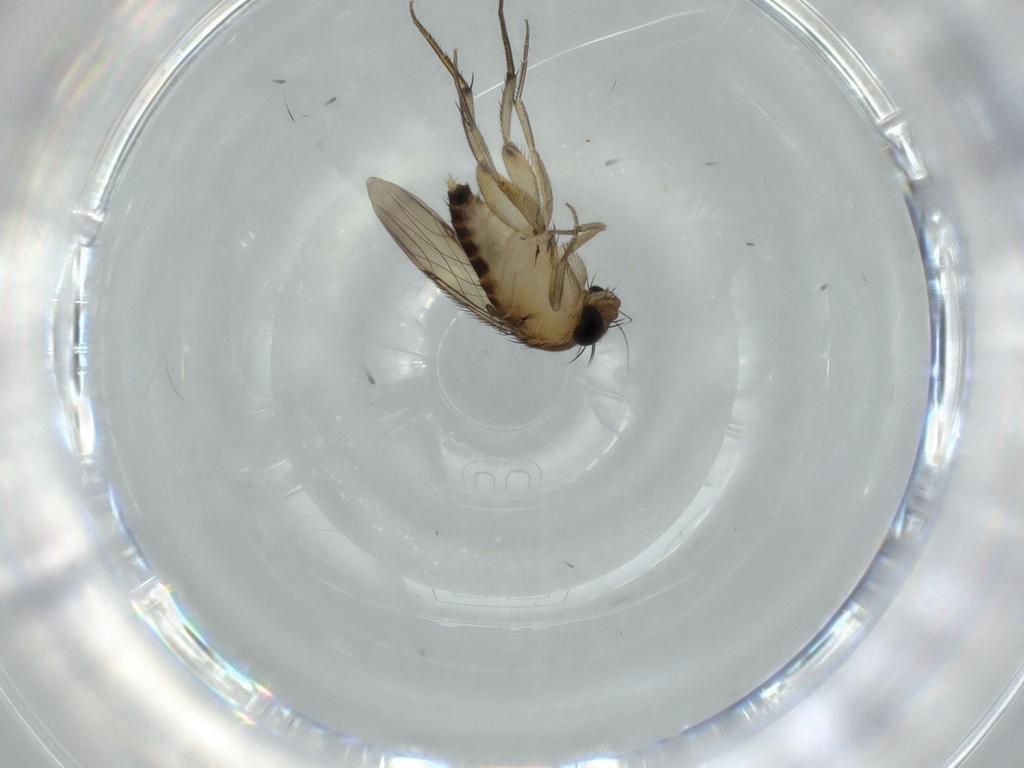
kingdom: Animalia
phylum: Arthropoda
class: Insecta
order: Diptera
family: Phoridae
